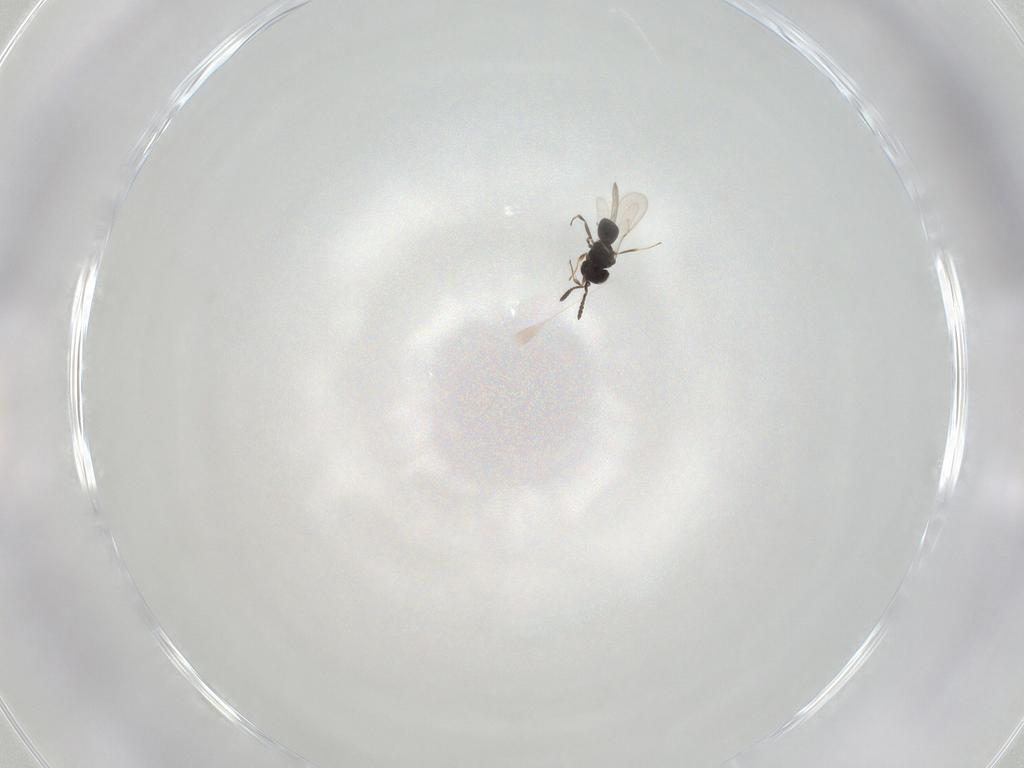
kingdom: Animalia
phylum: Arthropoda
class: Insecta
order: Hymenoptera
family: Scelionidae
